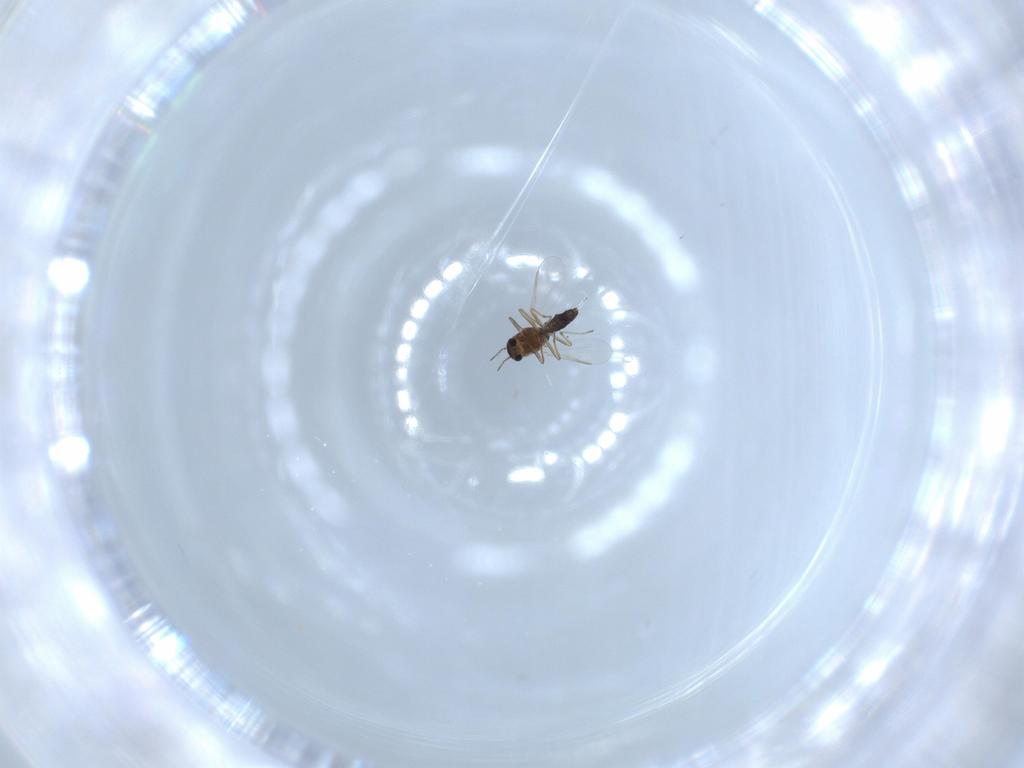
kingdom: Animalia
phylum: Arthropoda
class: Insecta
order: Diptera
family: Chironomidae
